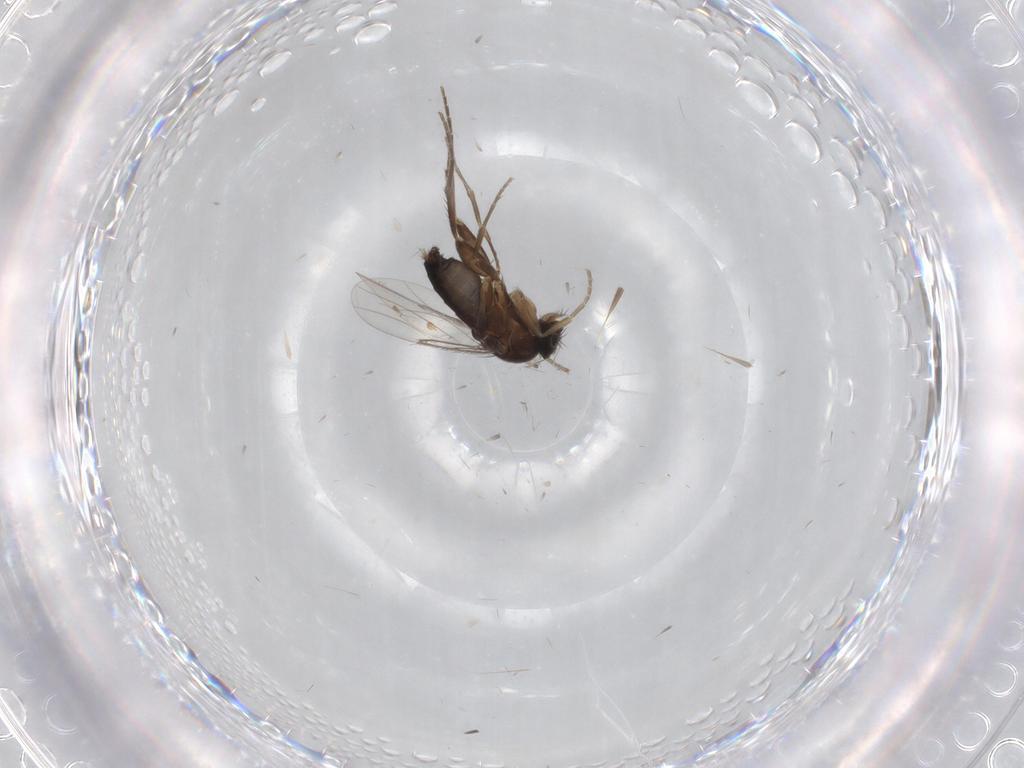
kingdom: Animalia
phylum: Arthropoda
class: Insecta
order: Diptera
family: Phoridae
